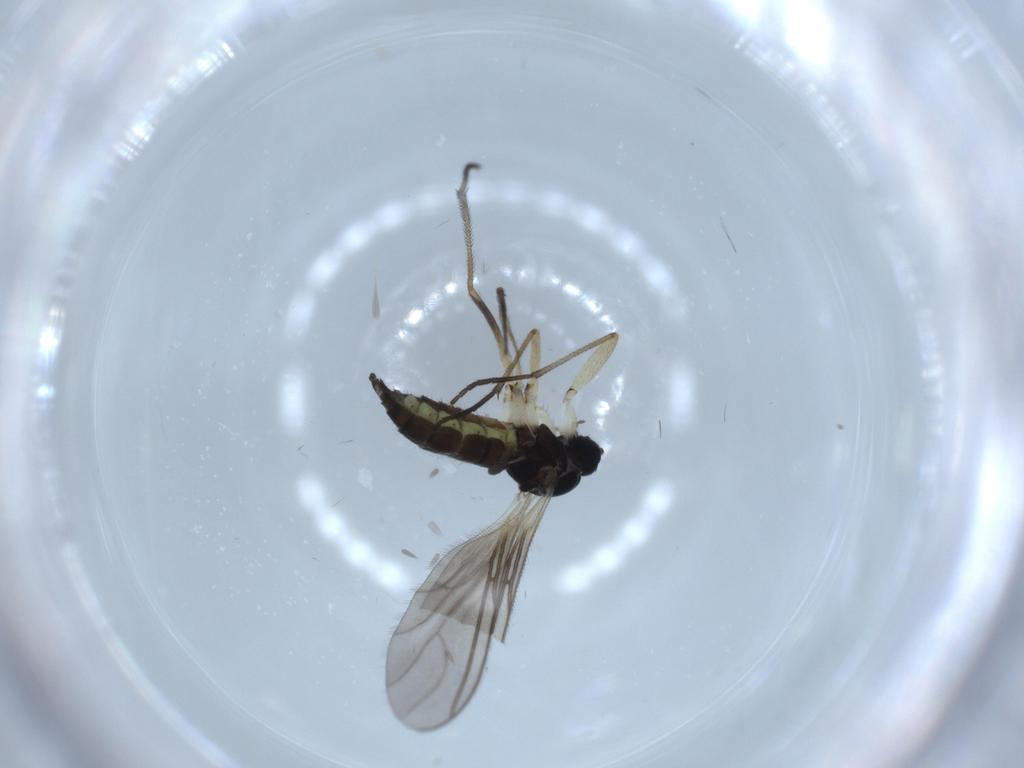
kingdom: Animalia
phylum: Arthropoda
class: Insecta
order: Diptera
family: Sciaridae
